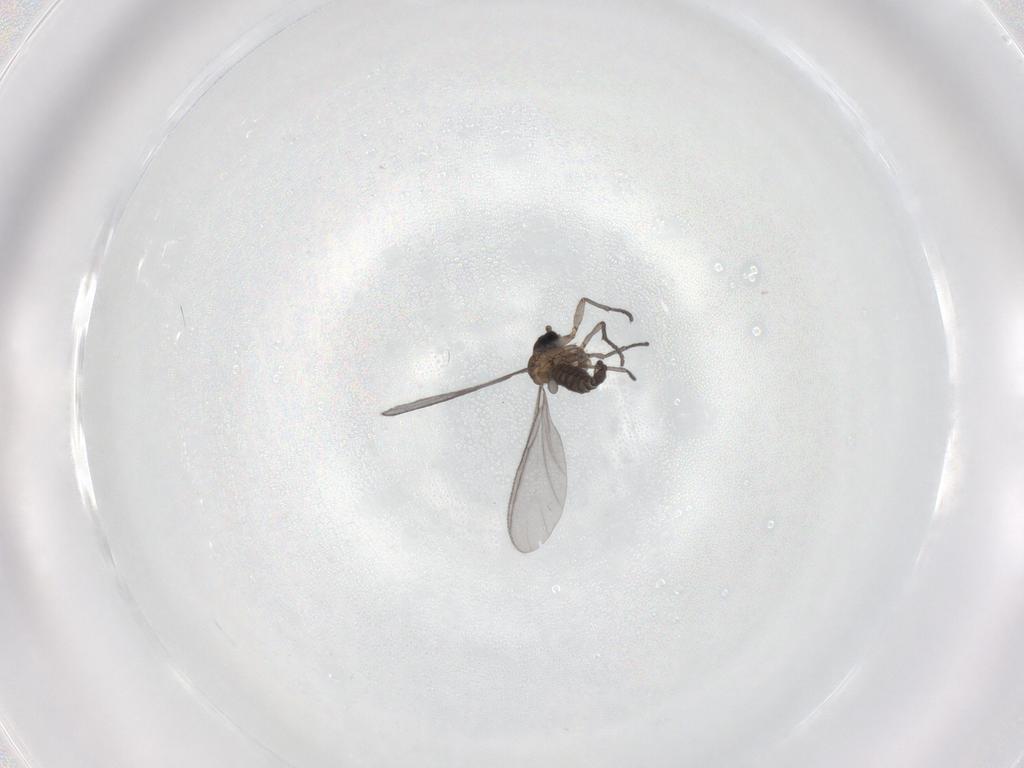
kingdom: Animalia
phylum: Arthropoda
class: Insecta
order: Diptera
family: Sciaridae
